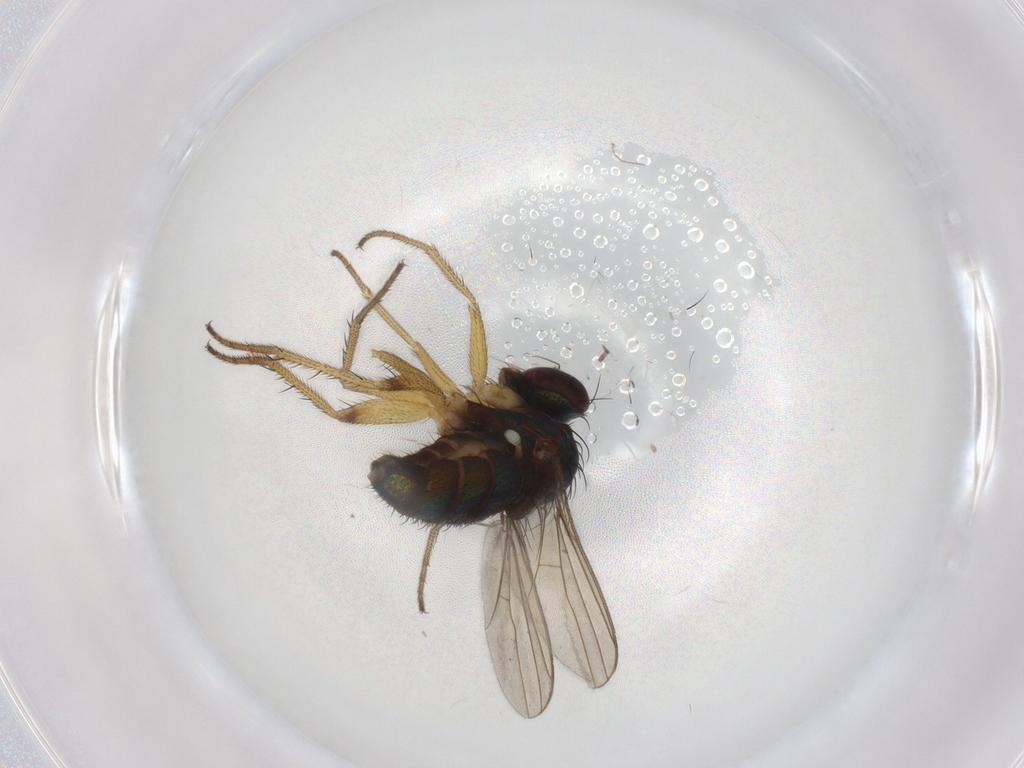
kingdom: Animalia
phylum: Arthropoda
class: Insecta
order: Diptera
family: Dolichopodidae
